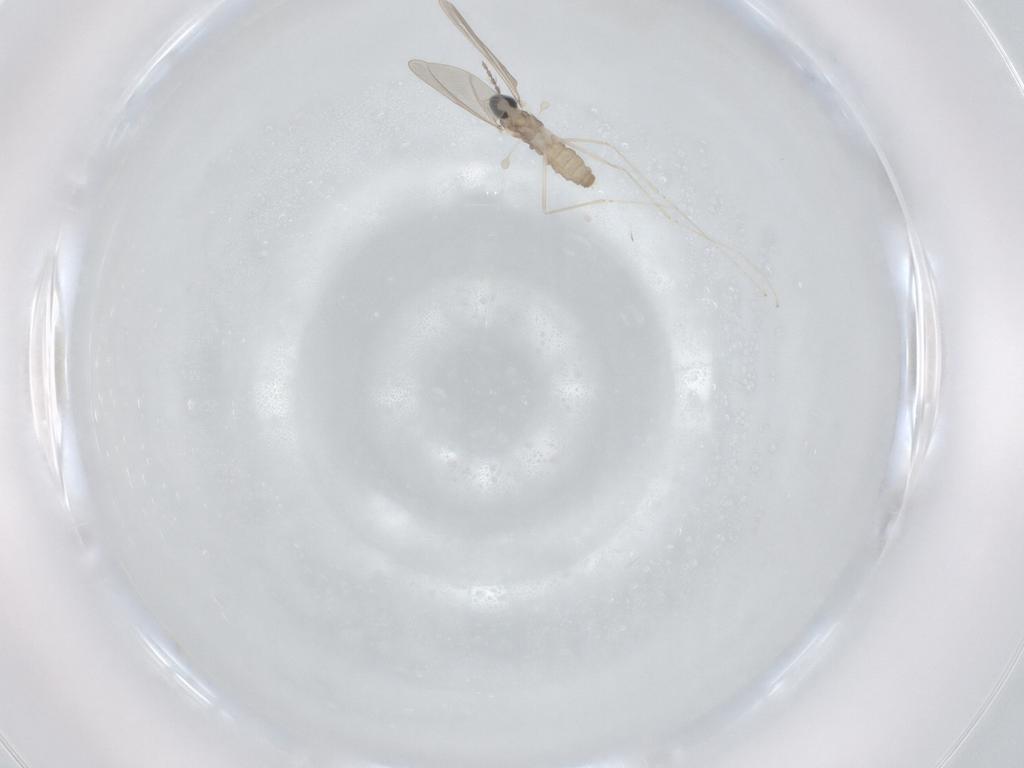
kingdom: Animalia
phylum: Arthropoda
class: Insecta
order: Diptera
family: Cecidomyiidae
